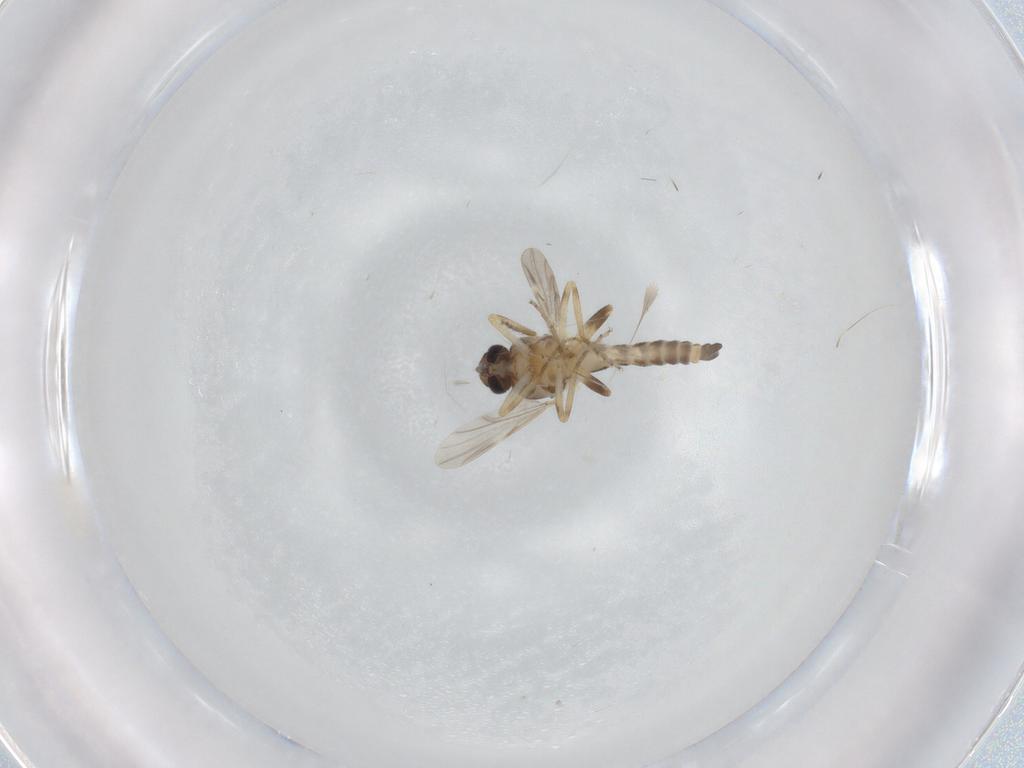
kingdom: Animalia
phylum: Arthropoda
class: Insecta
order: Diptera
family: Ceratopogonidae
